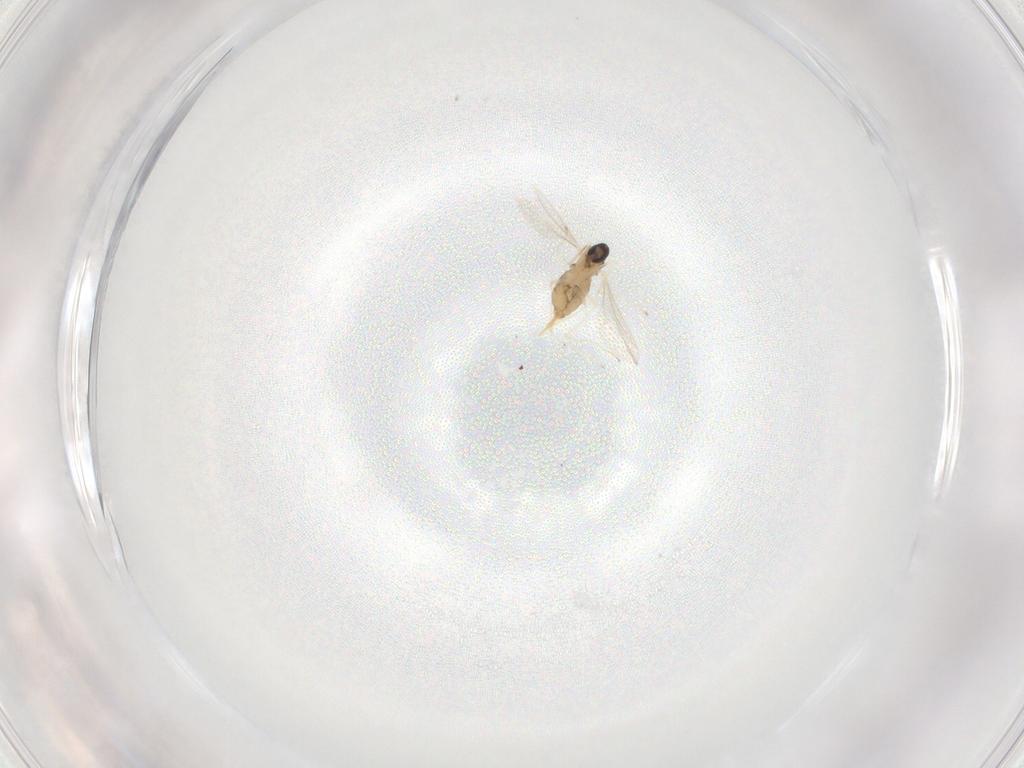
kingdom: Animalia
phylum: Arthropoda
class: Insecta
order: Diptera
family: Cecidomyiidae
